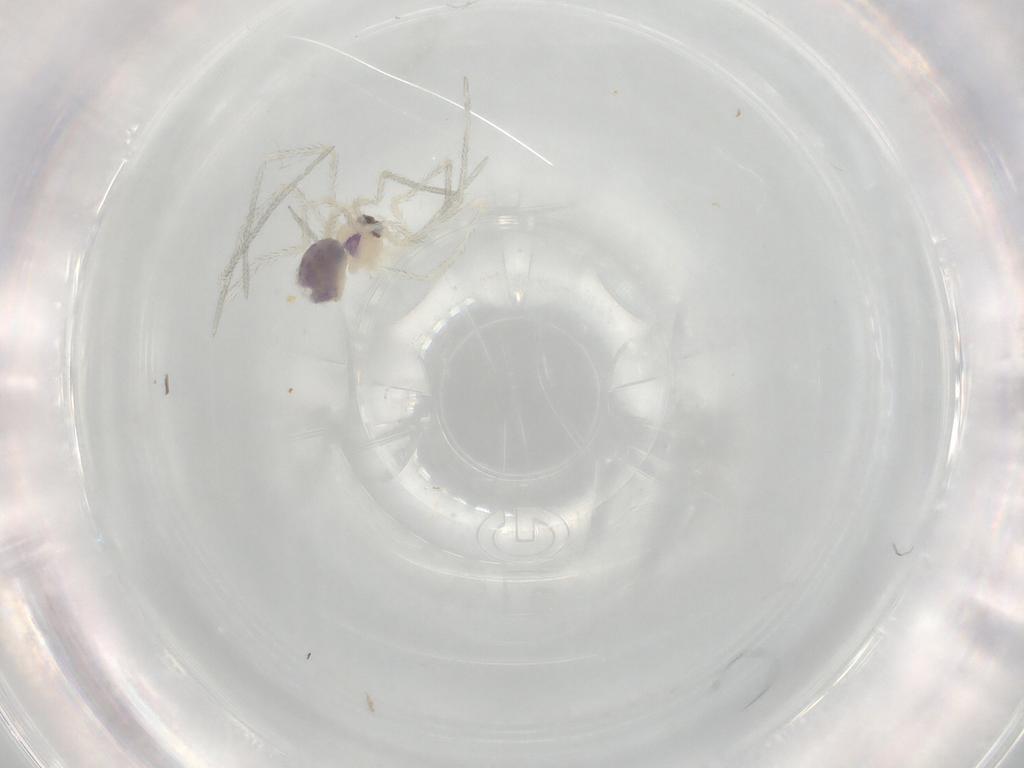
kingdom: Animalia
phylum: Arthropoda
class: Arachnida
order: Araneae
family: Pholcidae
